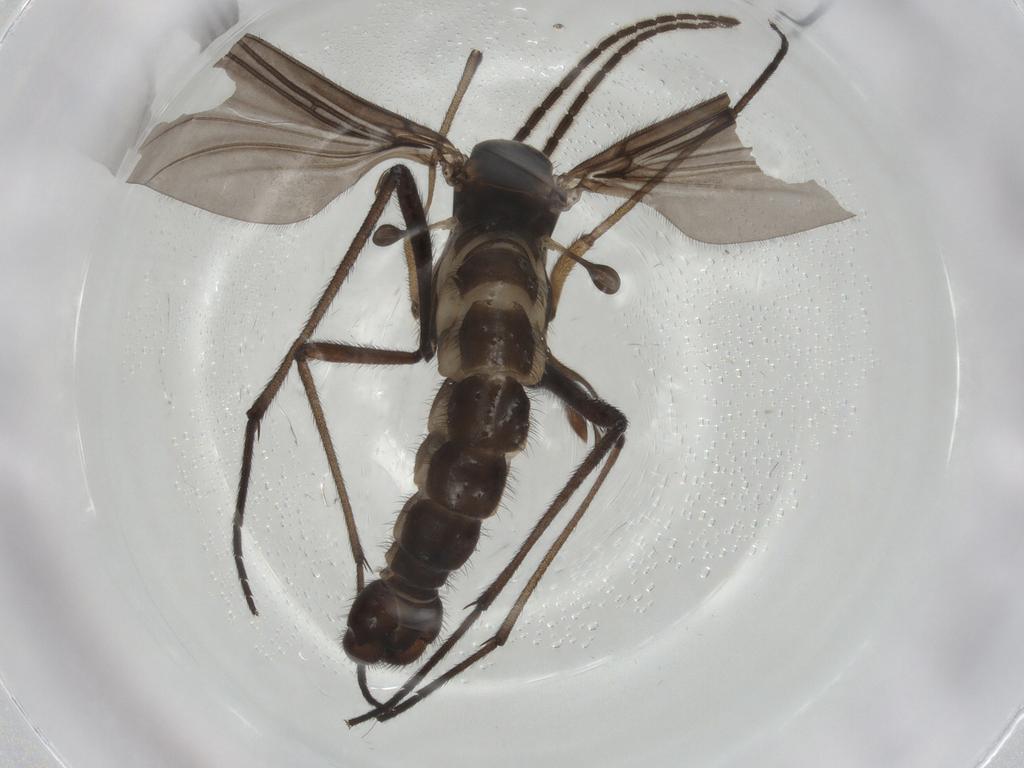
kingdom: Animalia
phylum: Arthropoda
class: Insecta
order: Diptera
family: Sciaridae
